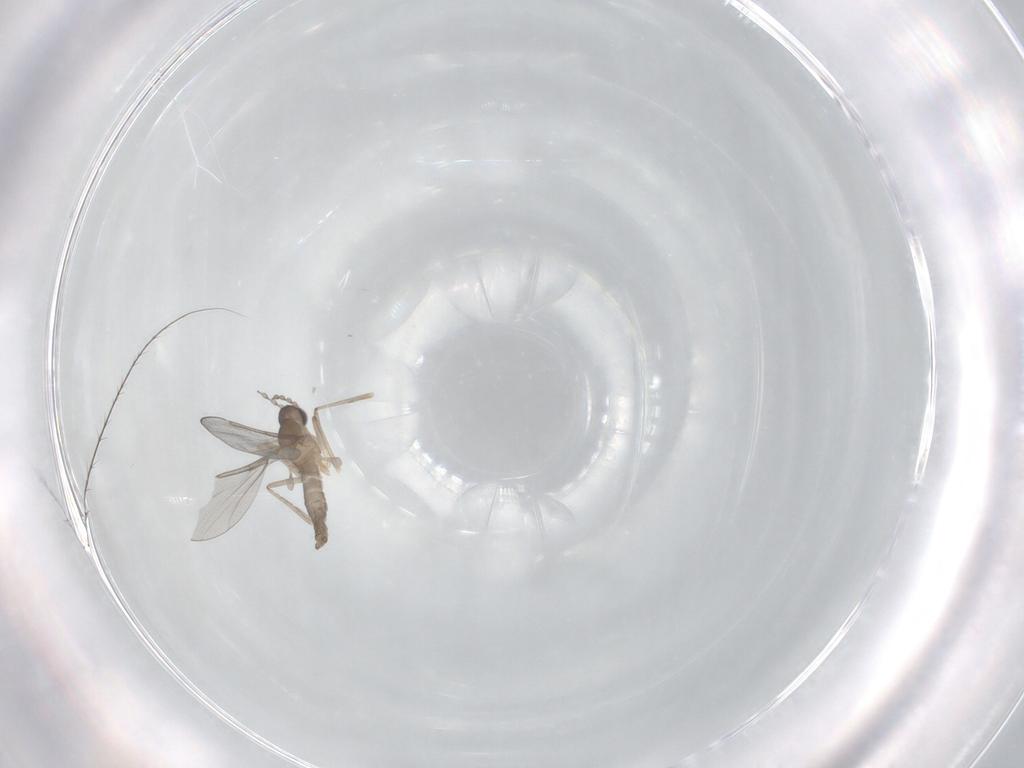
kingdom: Animalia
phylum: Arthropoda
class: Insecta
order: Diptera
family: Cecidomyiidae
